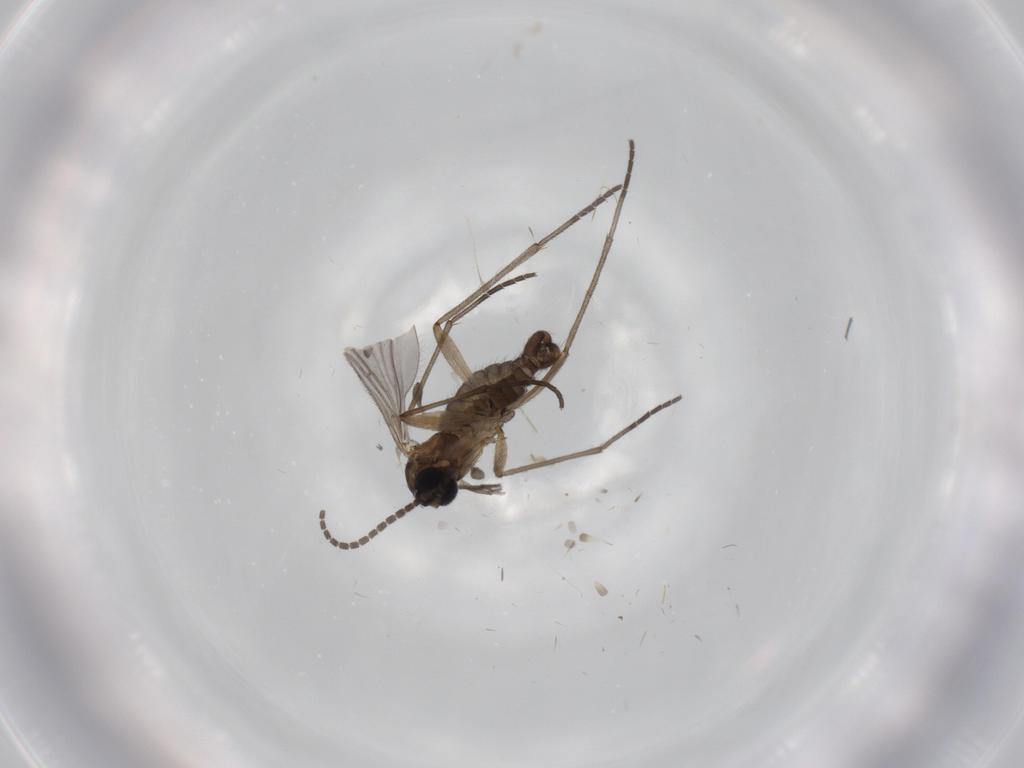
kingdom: Animalia
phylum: Arthropoda
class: Insecta
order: Diptera
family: Sciaridae
